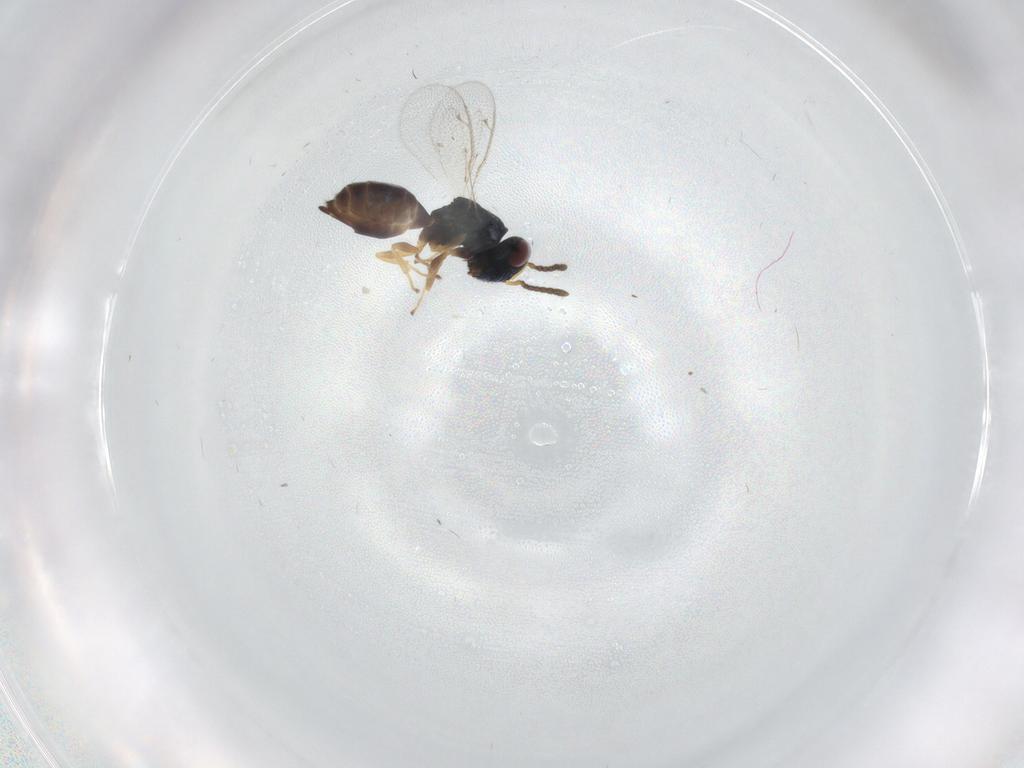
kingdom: Animalia
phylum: Arthropoda
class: Insecta
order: Hymenoptera
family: Eupelmidae
